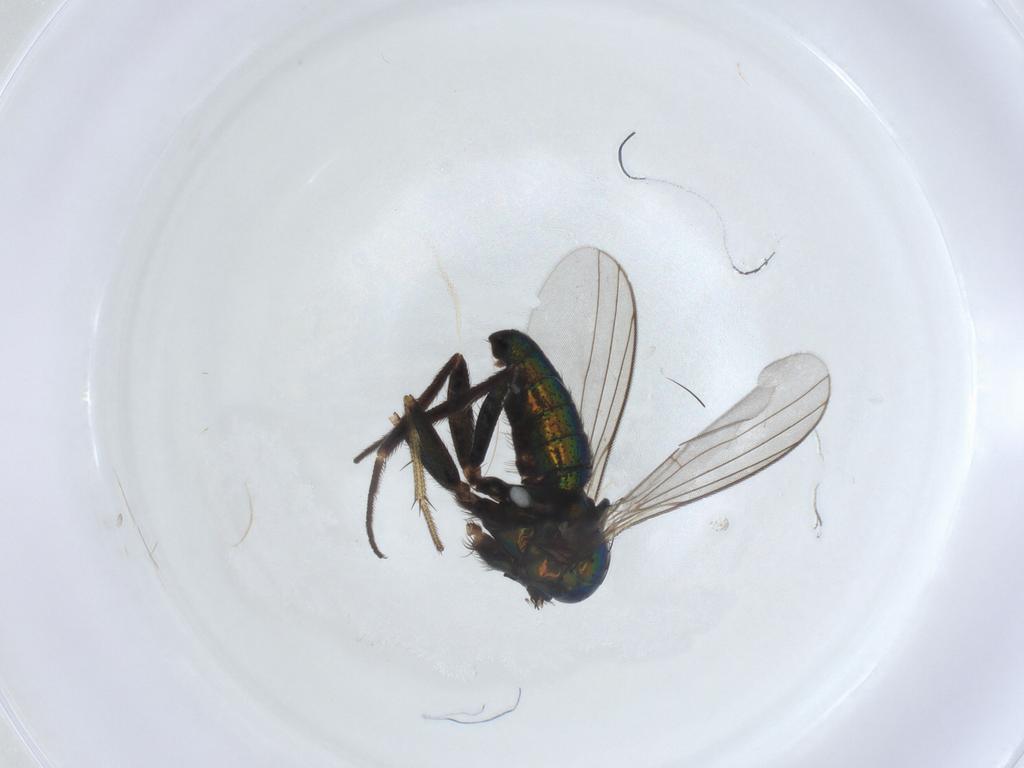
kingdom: Animalia
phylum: Arthropoda
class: Insecta
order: Diptera
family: Dolichopodidae
